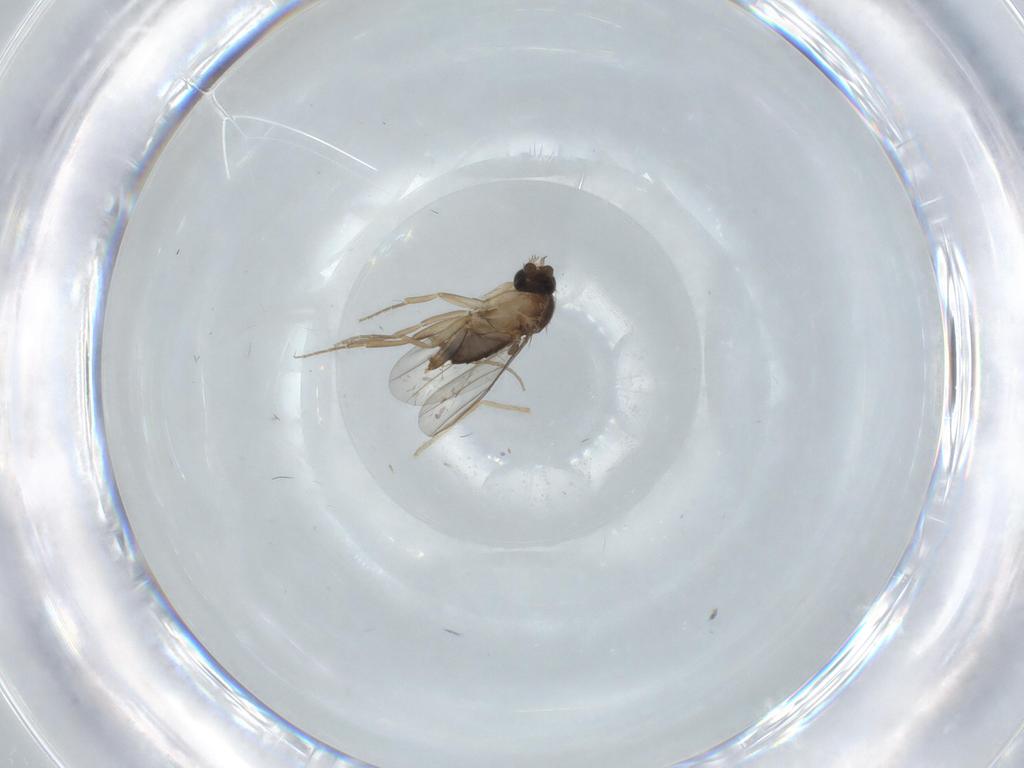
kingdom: Animalia
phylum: Arthropoda
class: Insecta
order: Diptera
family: Phoridae
